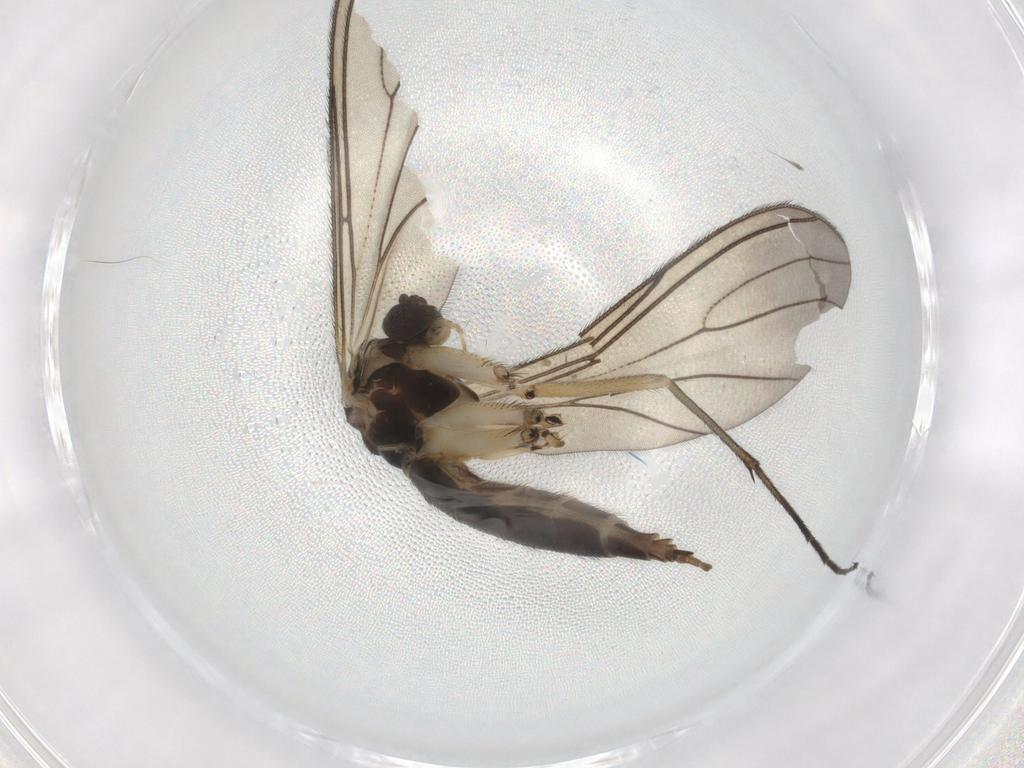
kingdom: Animalia
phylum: Arthropoda
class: Insecta
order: Diptera
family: Sciaridae
